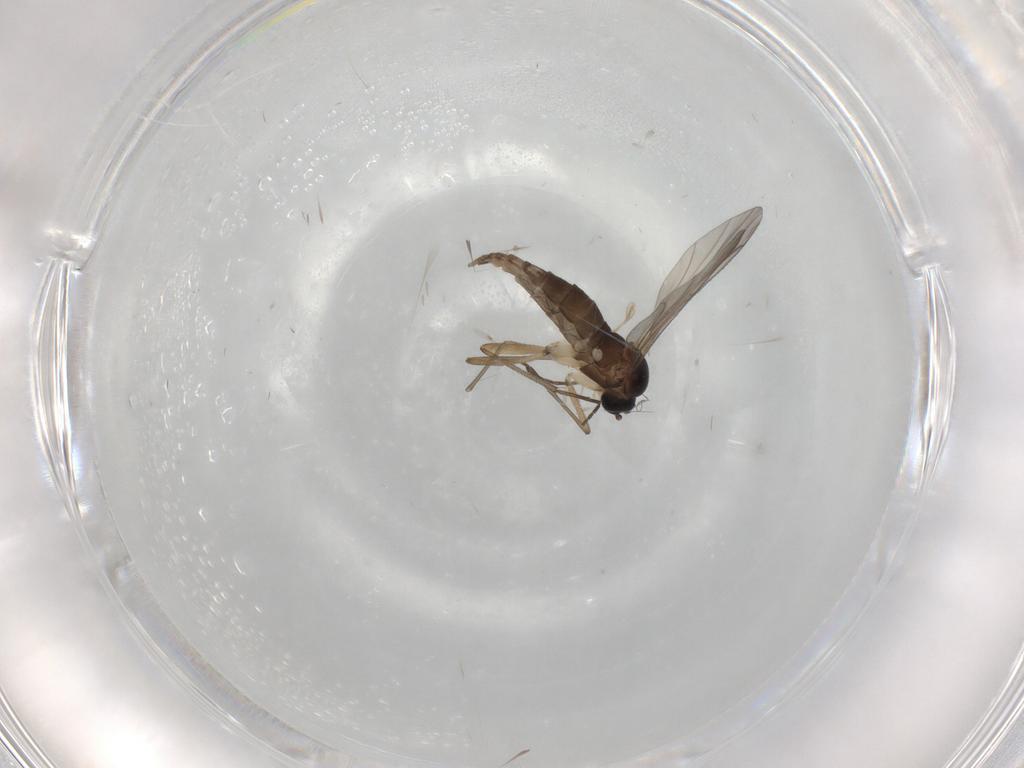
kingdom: Animalia
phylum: Arthropoda
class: Insecta
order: Diptera
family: Sciaridae
